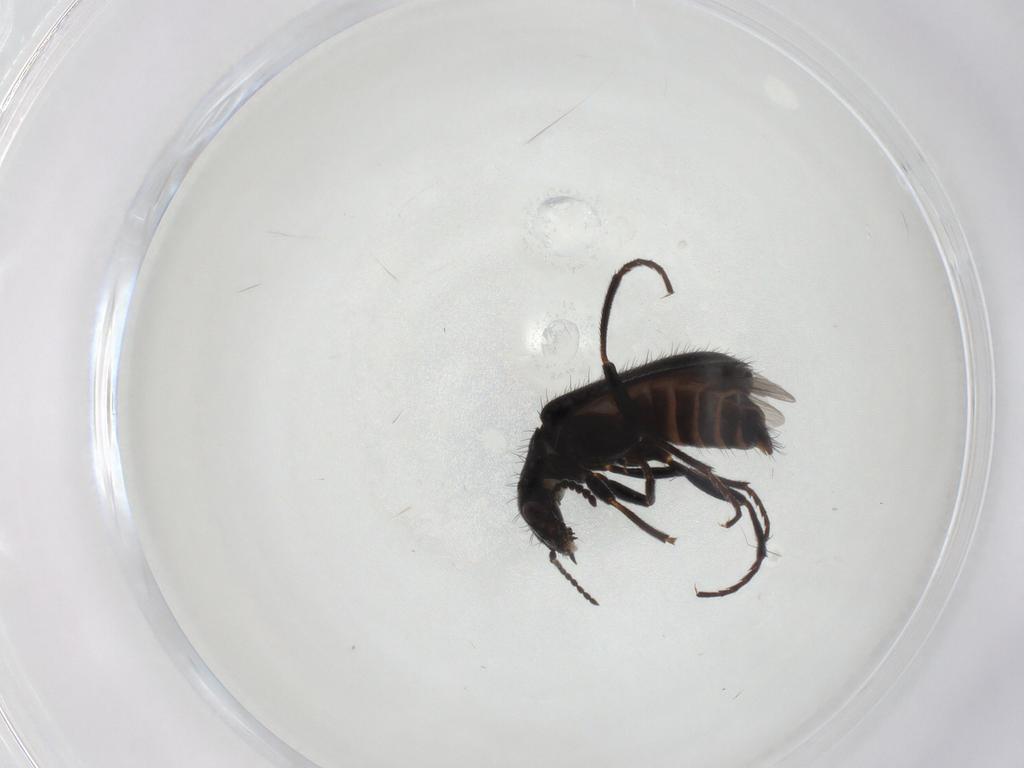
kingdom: Animalia
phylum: Arthropoda
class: Insecta
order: Coleoptera
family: Melyridae
